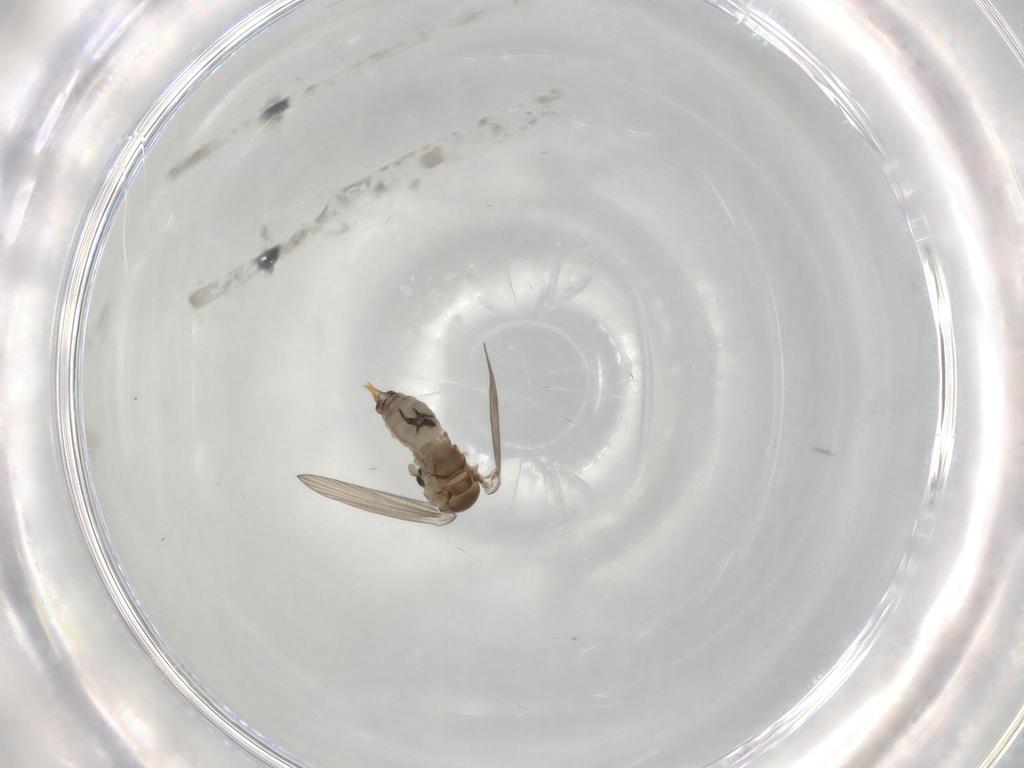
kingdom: Animalia
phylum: Arthropoda
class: Insecta
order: Diptera
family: Psychodidae
